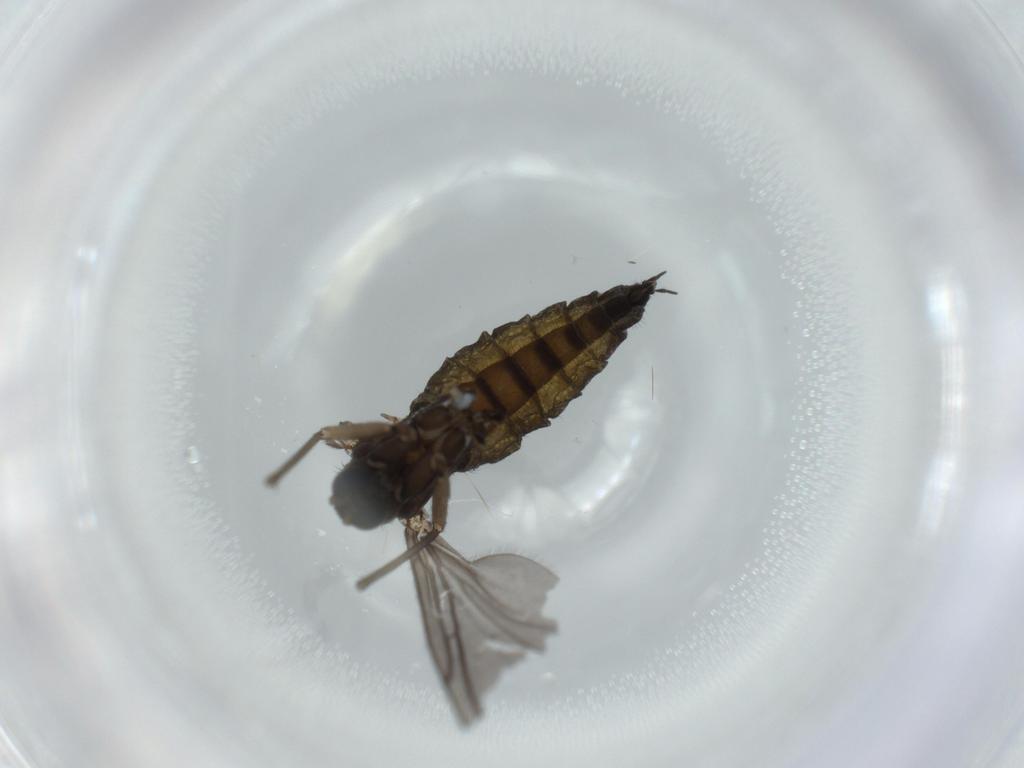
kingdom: Animalia
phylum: Arthropoda
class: Insecta
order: Diptera
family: Sciaridae
